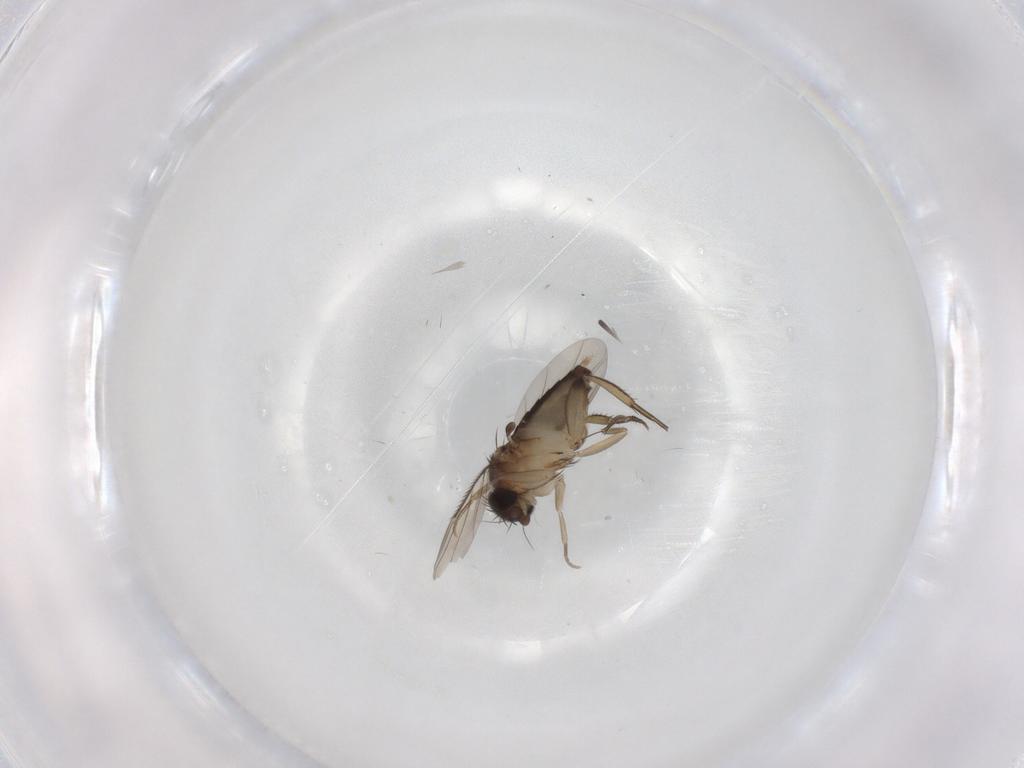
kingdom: Animalia
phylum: Arthropoda
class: Insecta
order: Diptera
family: Phoridae
